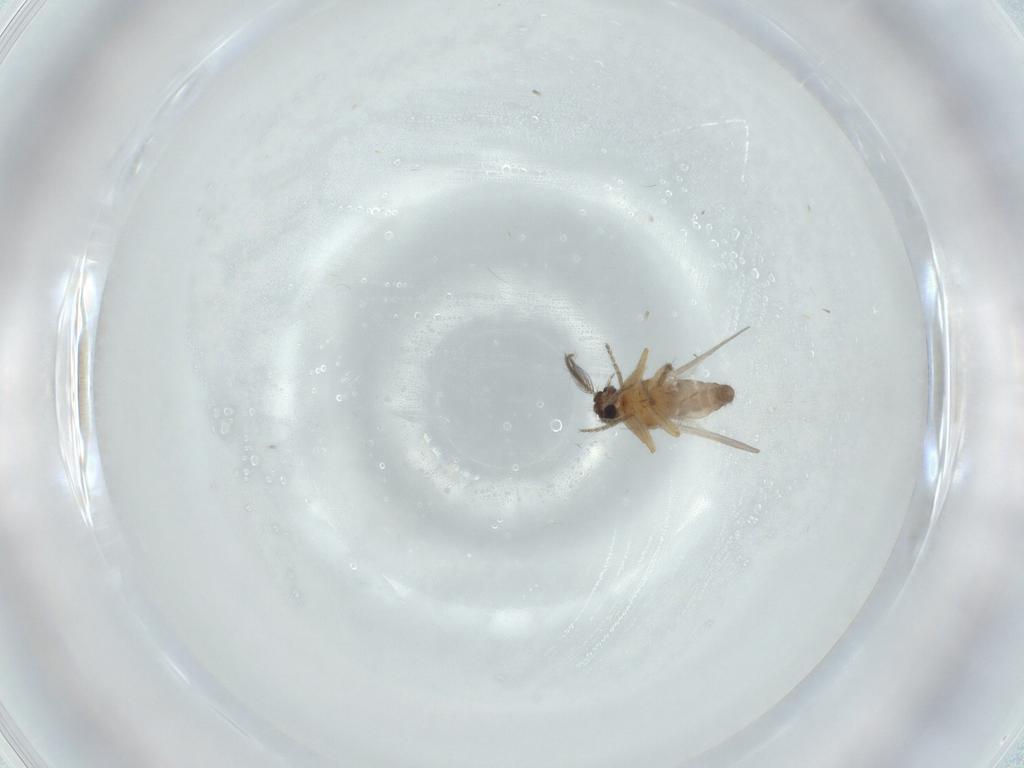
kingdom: Animalia
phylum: Arthropoda
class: Insecta
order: Diptera
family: Ceratopogonidae
